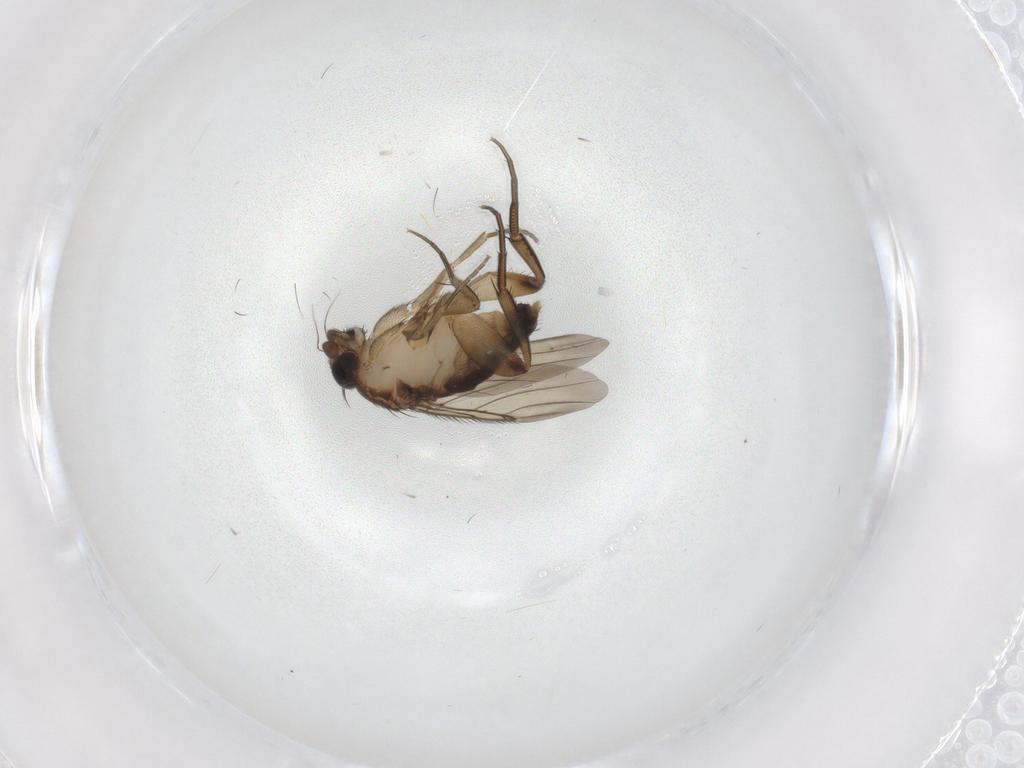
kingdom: Animalia
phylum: Arthropoda
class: Insecta
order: Diptera
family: Phoridae
